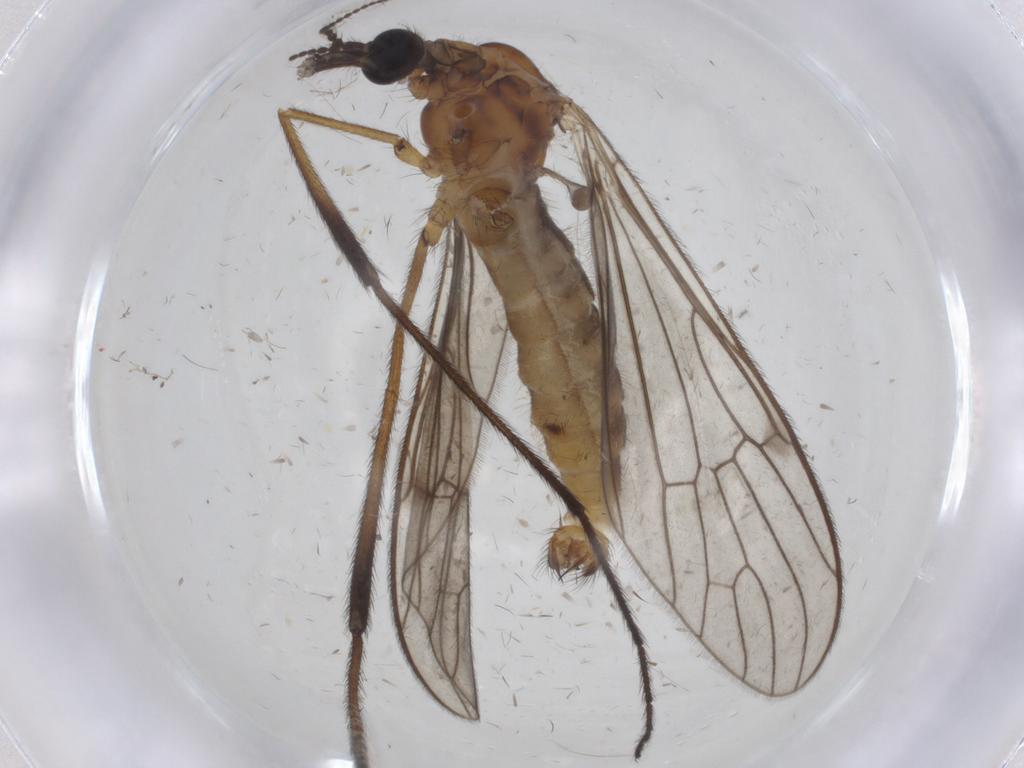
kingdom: Animalia
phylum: Arthropoda
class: Insecta
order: Diptera
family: Limoniidae
